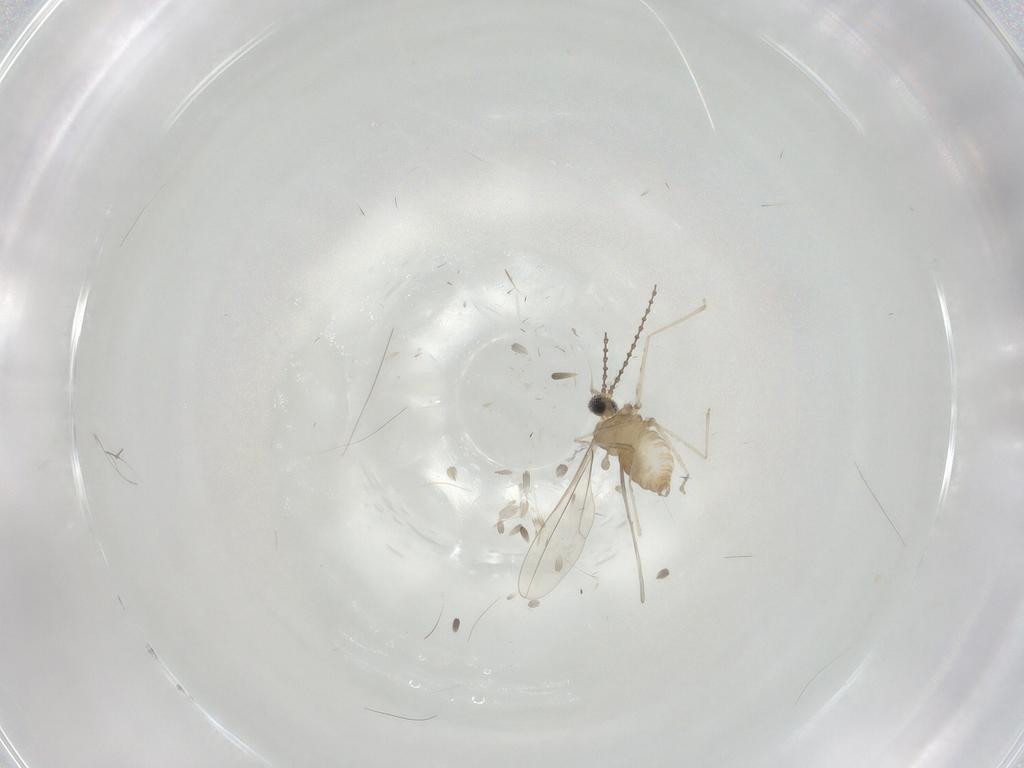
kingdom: Animalia
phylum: Arthropoda
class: Insecta
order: Diptera
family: Cecidomyiidae
